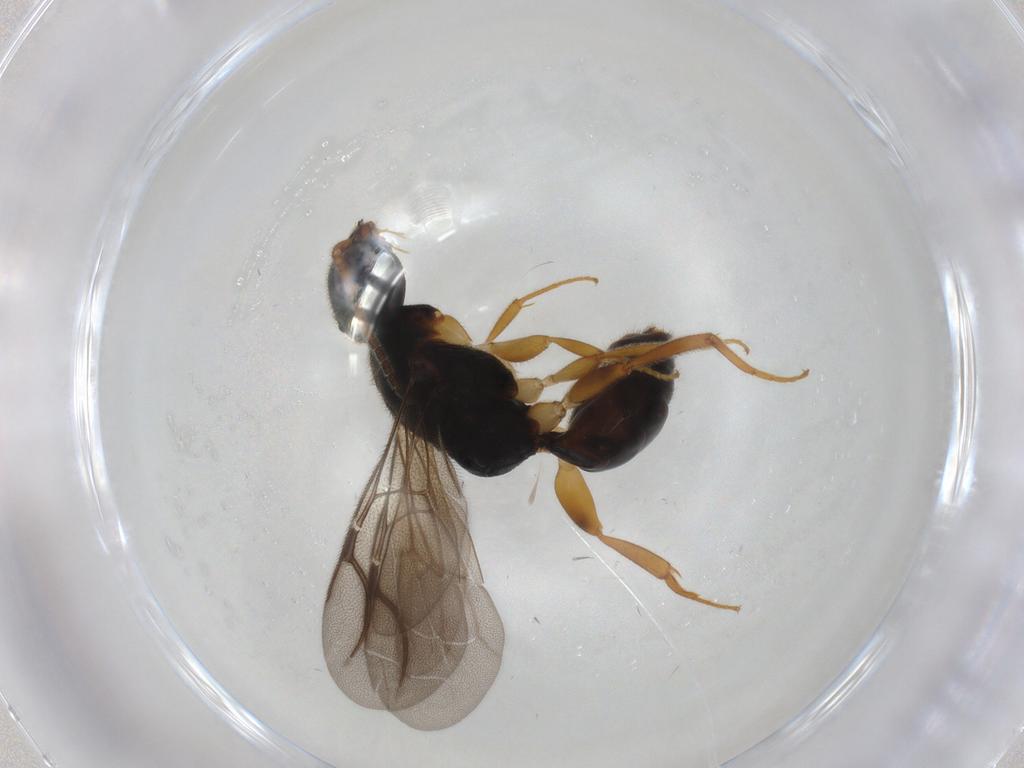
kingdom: Animalia
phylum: Arthropoda
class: Insecta
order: Hymenoptera
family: Bethylidae
